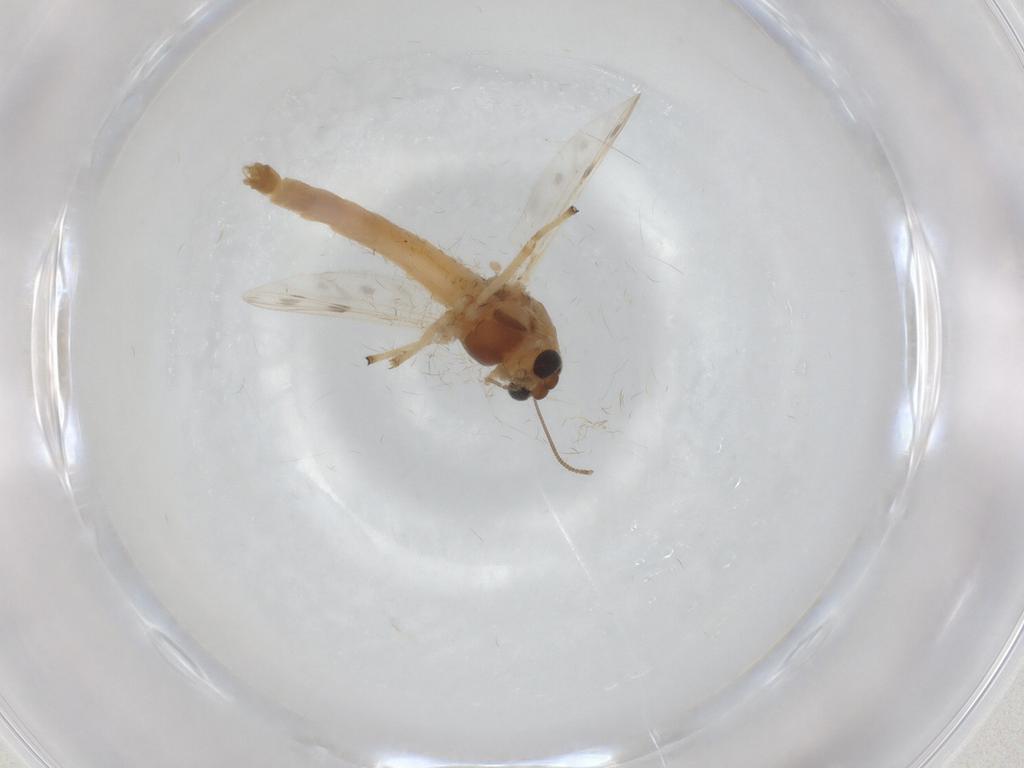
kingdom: Animalia
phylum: Arthropoda
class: Insecta
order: Diptera
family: Chironomidae
